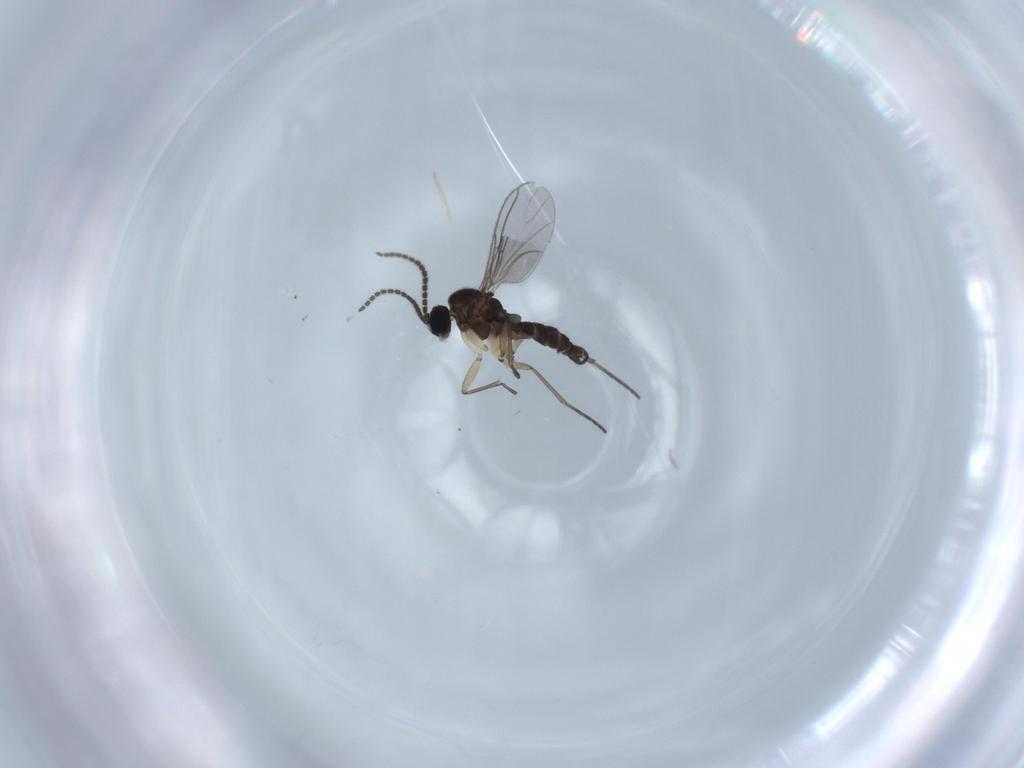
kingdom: Animalia
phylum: Arthropoda
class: Insecta
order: Diptera
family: Sciaridae
